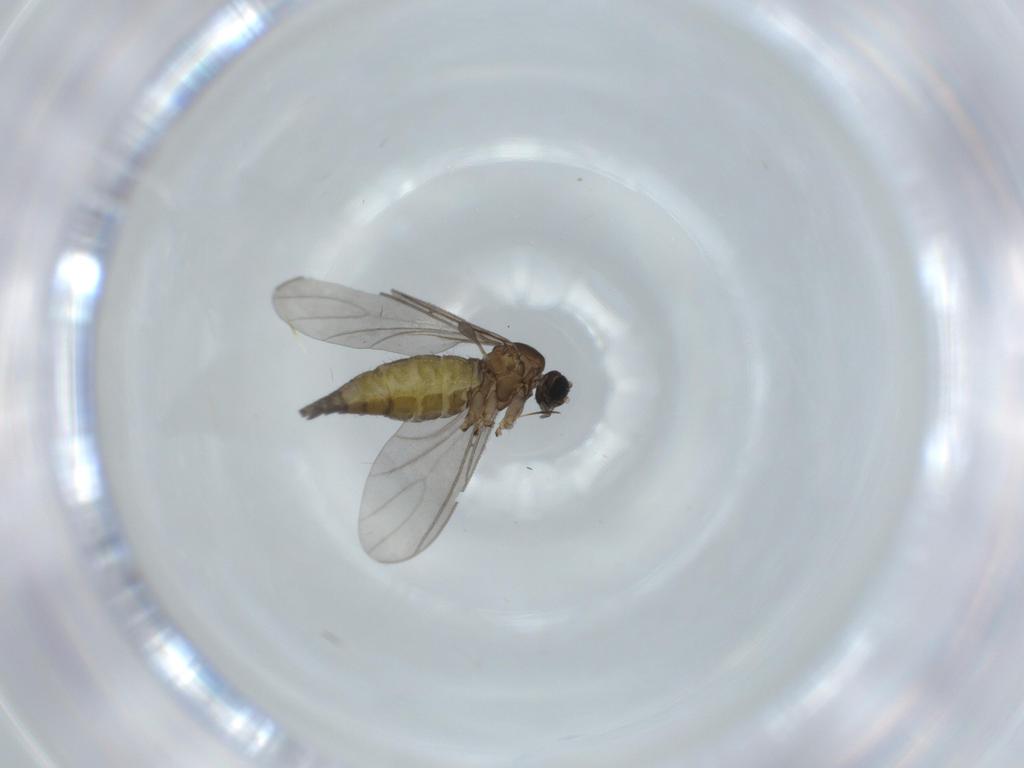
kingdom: Animalia
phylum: Arthropoda
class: Insecta
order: Diptera
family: Sciaridae
